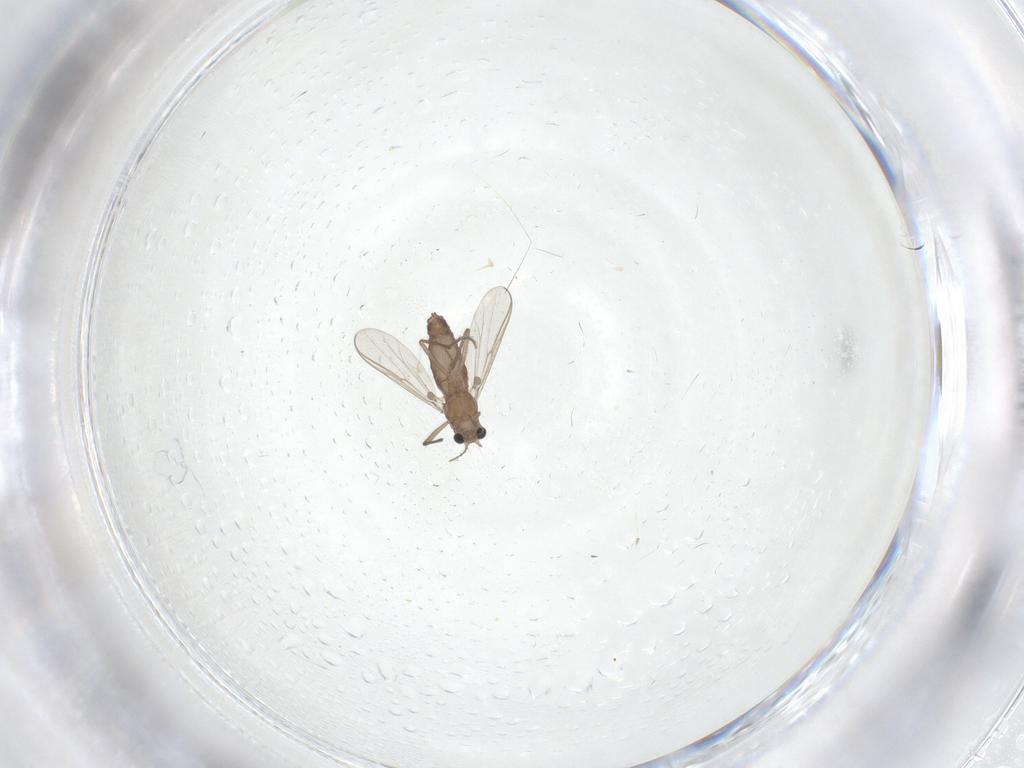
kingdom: Animalia
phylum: Arthropoda
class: Insecta
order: Diptera
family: Chironomidae
